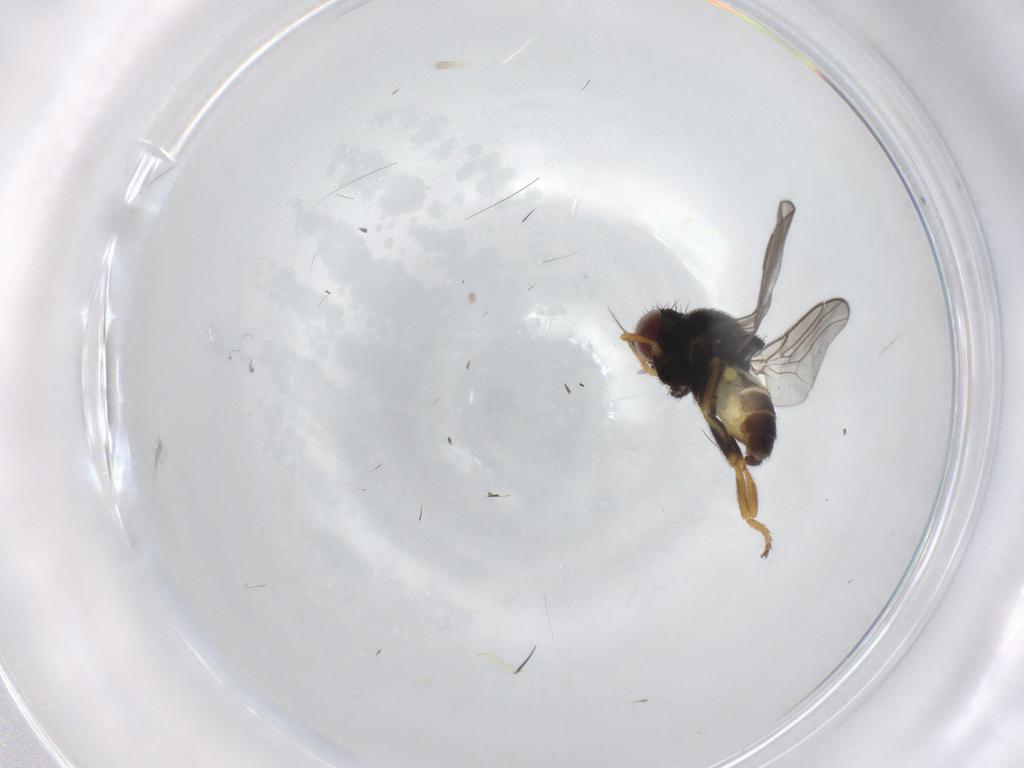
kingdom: Animalia
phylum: Arthropoda
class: Insecta
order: Diptera
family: Chloropidae
